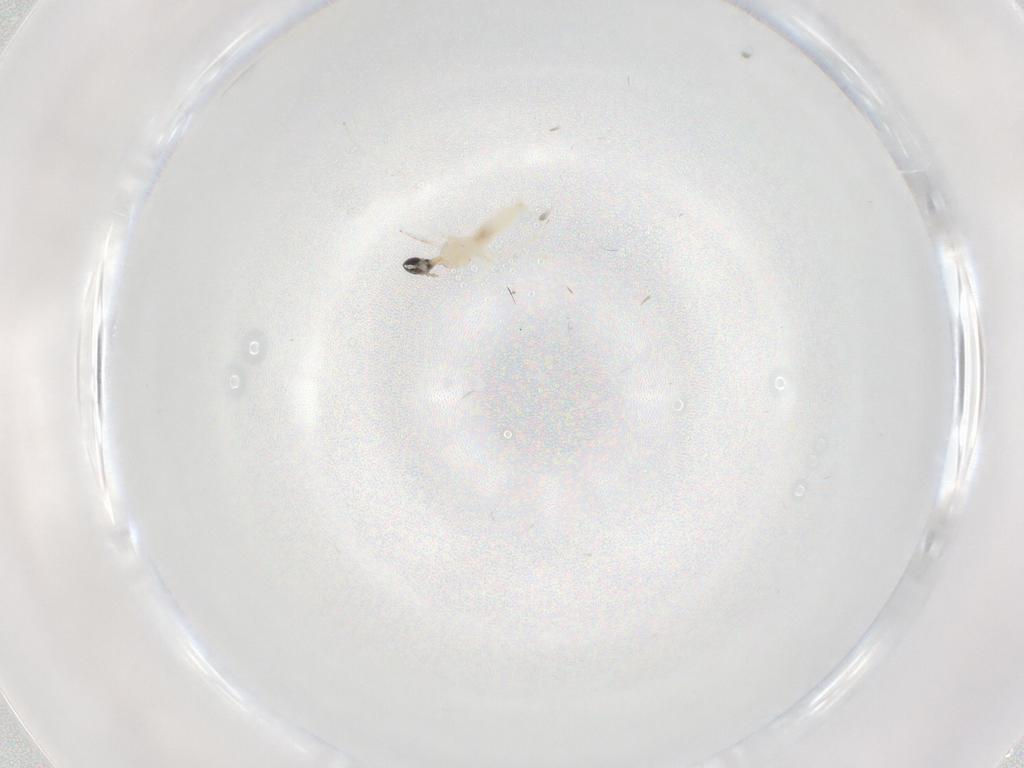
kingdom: Animalia
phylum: Arthropoda
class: Insecta
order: Diptera
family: Cecidomyiidae
